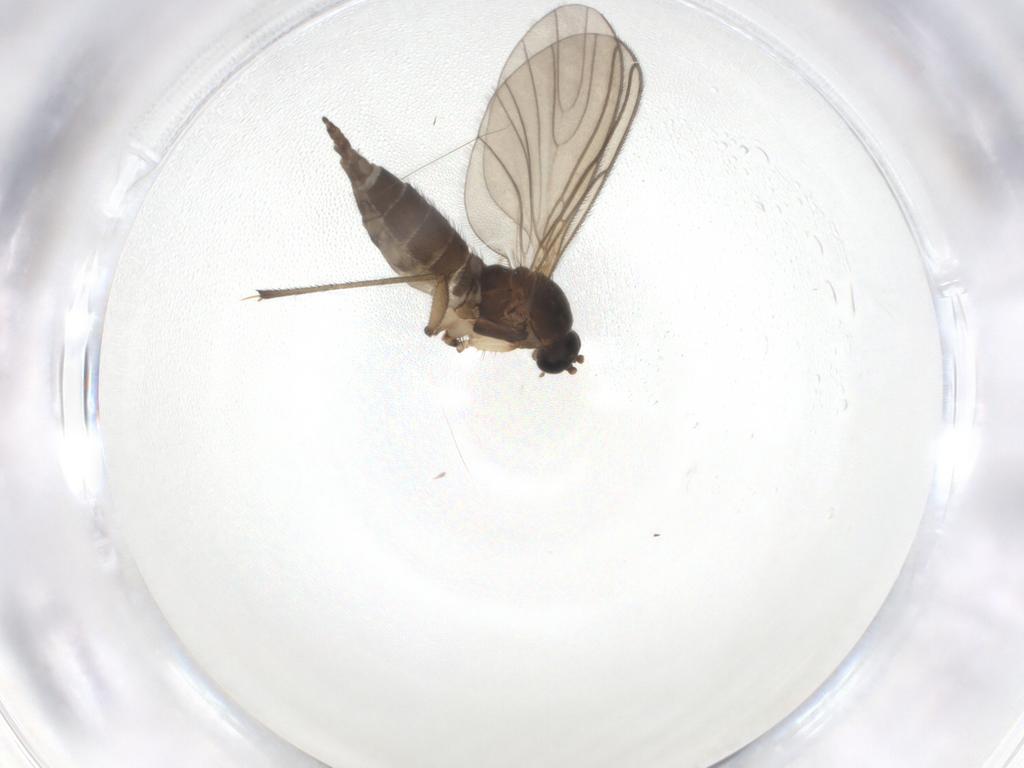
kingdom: Animalia
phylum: Arthropoda
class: Insecta
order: Diptera
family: Sciaridae
